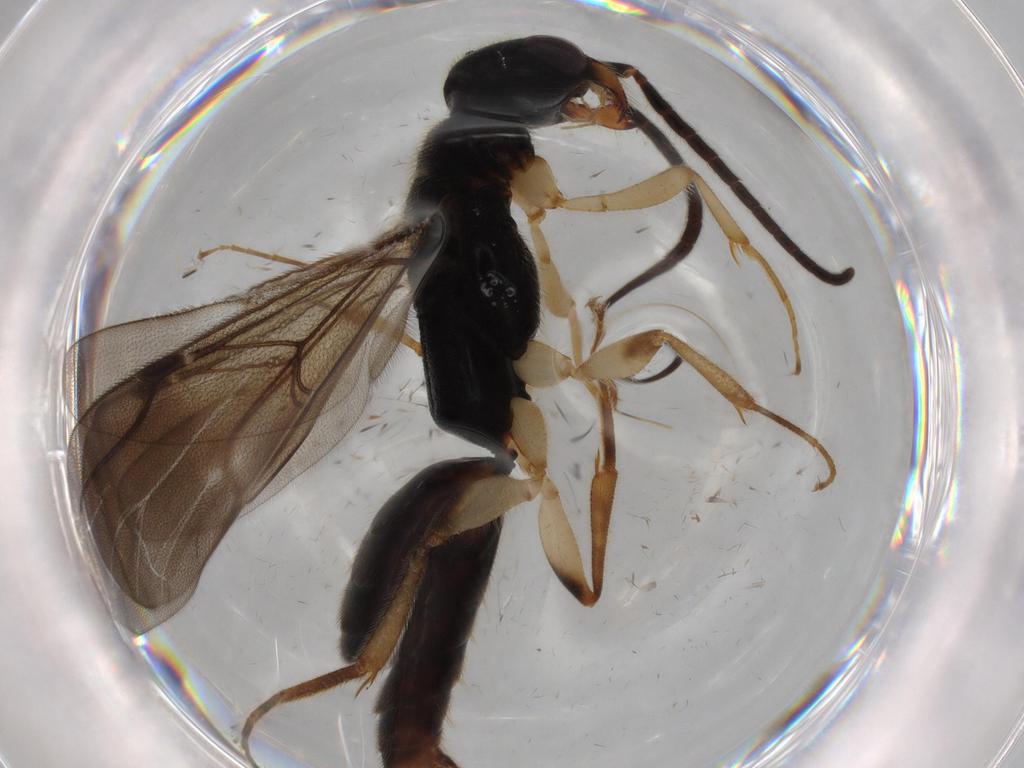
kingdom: Animalia
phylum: Arthropoda
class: Insecta
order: Hymenoptera
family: Bethylidae
